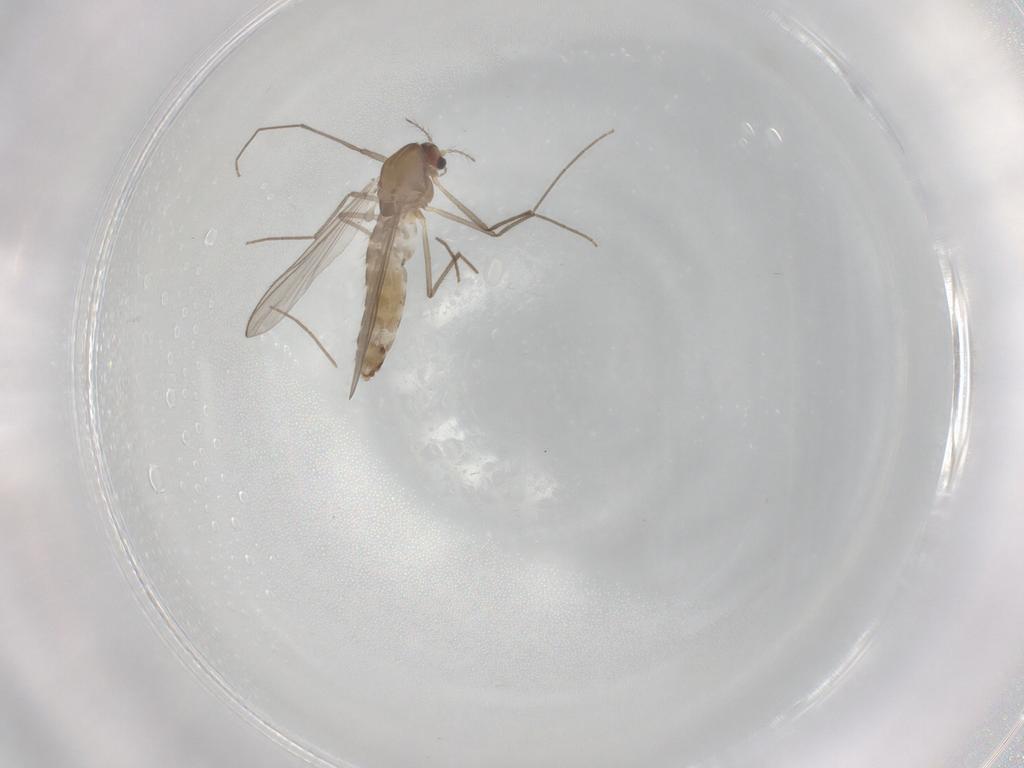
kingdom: Animalia
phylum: Arthropoda
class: Insecta
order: Diptera
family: Chironomidae
